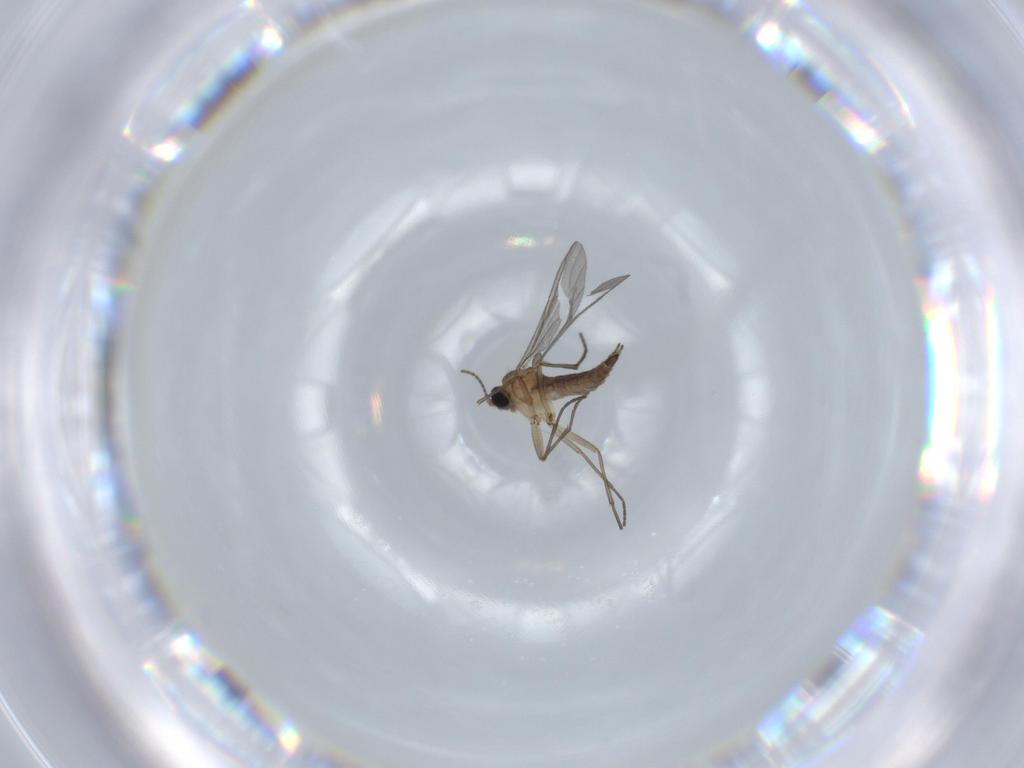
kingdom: Animalia
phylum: Arthropoda
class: Insecta
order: Diptera
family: Sciaridae
